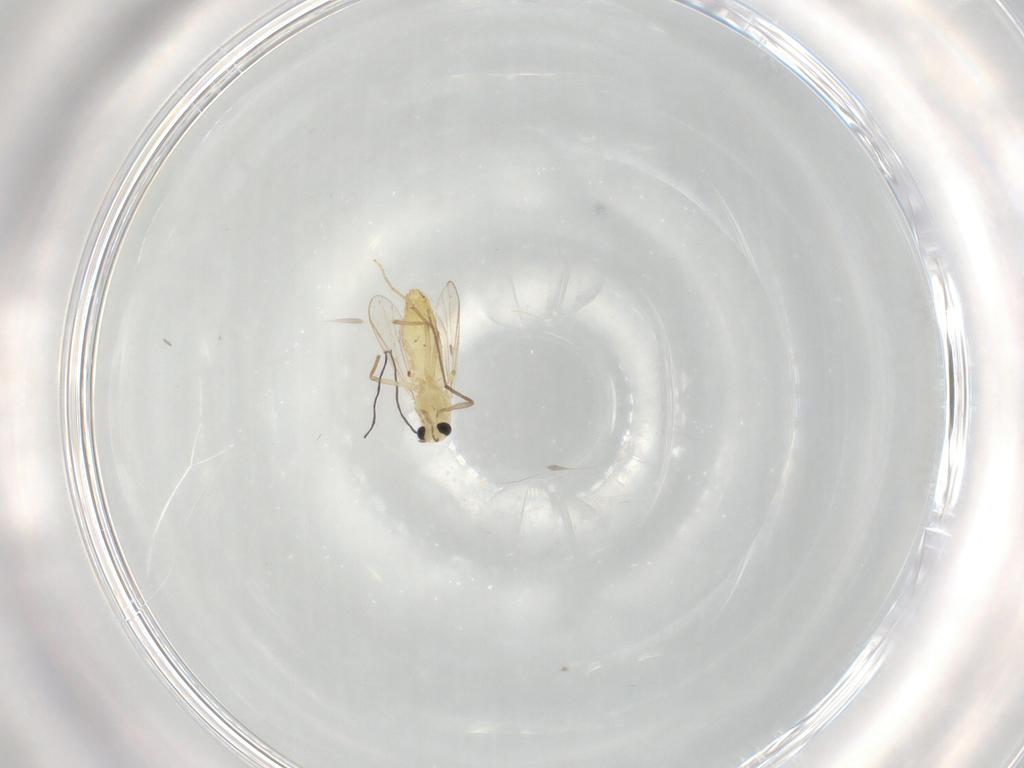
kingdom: Animalia
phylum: Arthropoda
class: Insecta
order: Diptera
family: Chironomidae
